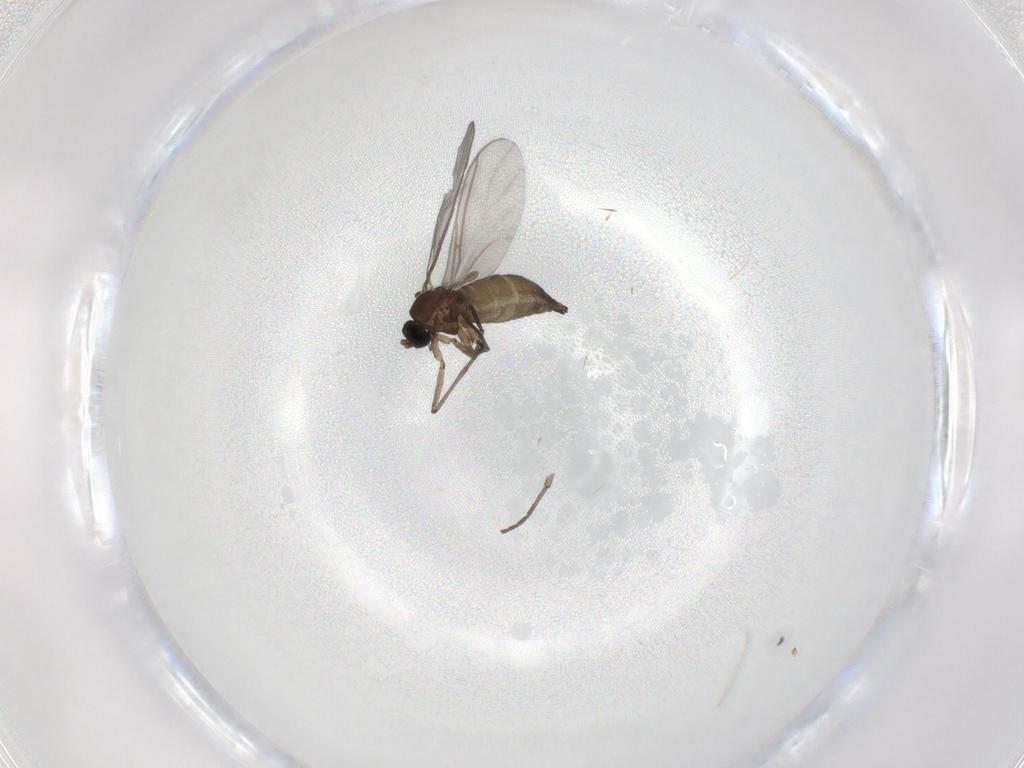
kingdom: Animalia
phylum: Arthropoda
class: Insecta
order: Diptera
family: Sciaridae
